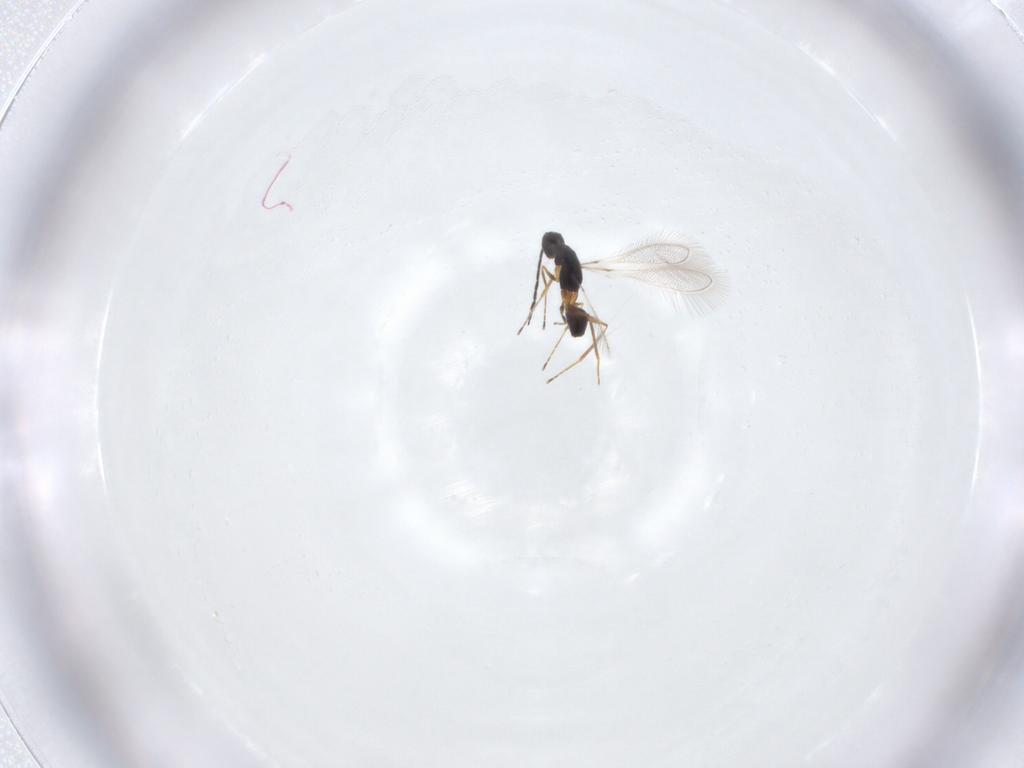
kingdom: Animalia
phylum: Arthropoda
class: Insecta
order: Hymenoptera
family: Mymaridae
